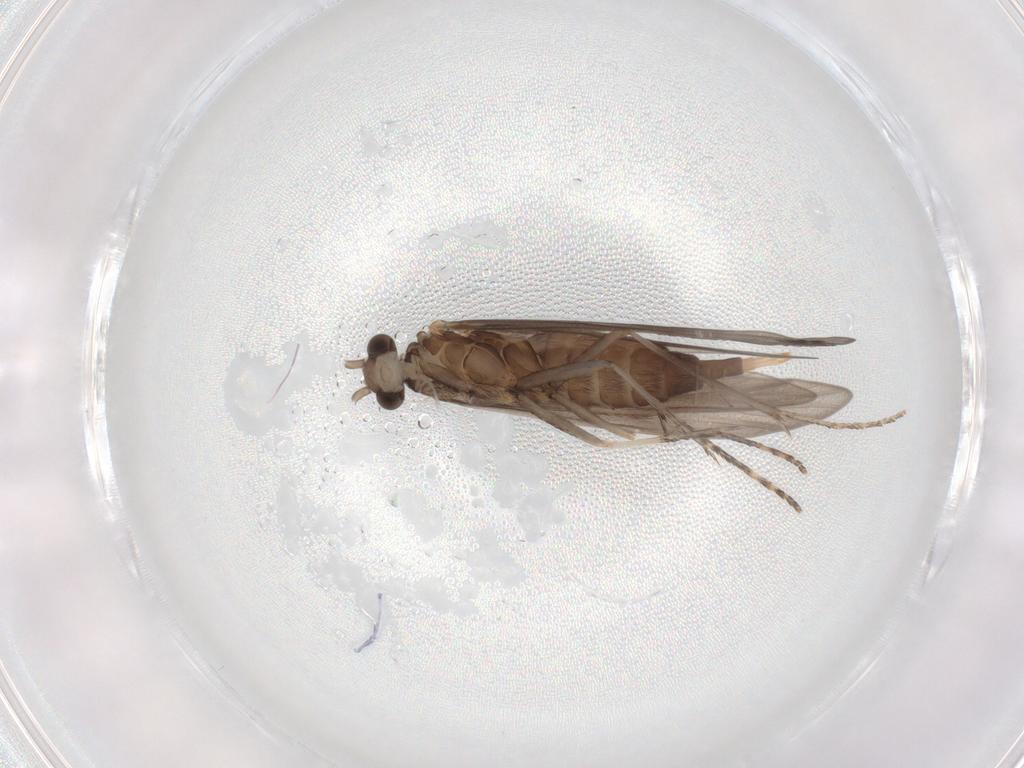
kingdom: Animalia
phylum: Arthropoda
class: Insecta
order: Trichoptera
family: Xiphocentronidae
